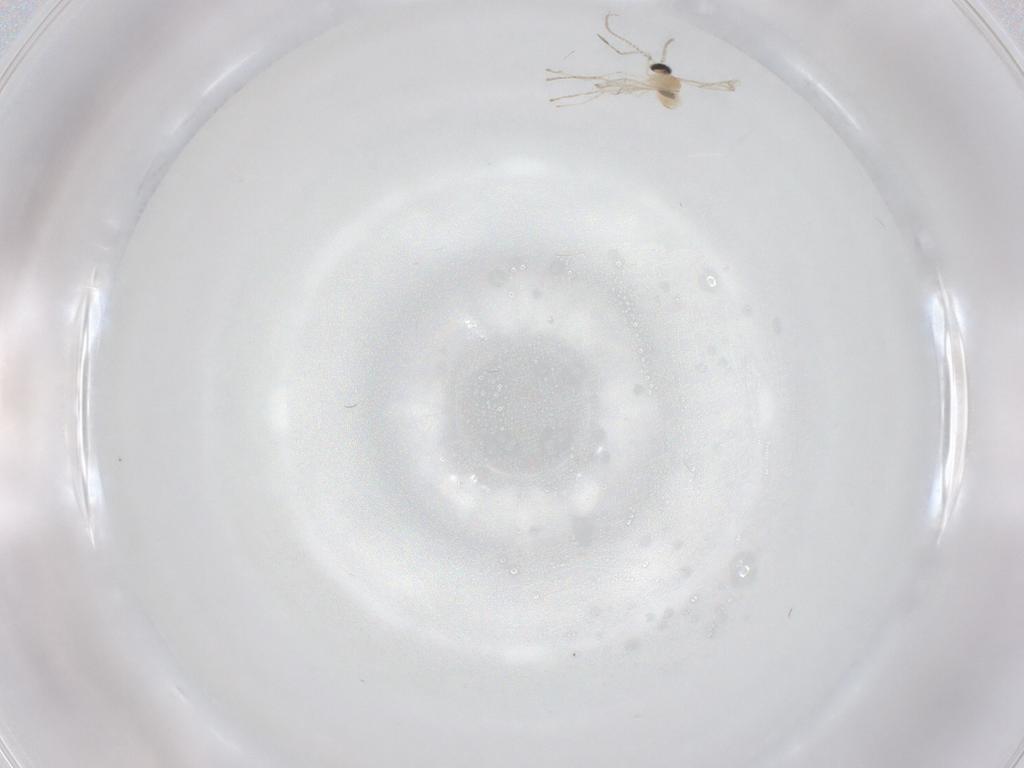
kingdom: Animalia
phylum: Arthropoda
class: Insecta
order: Diptera
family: Cecidomyiidae
